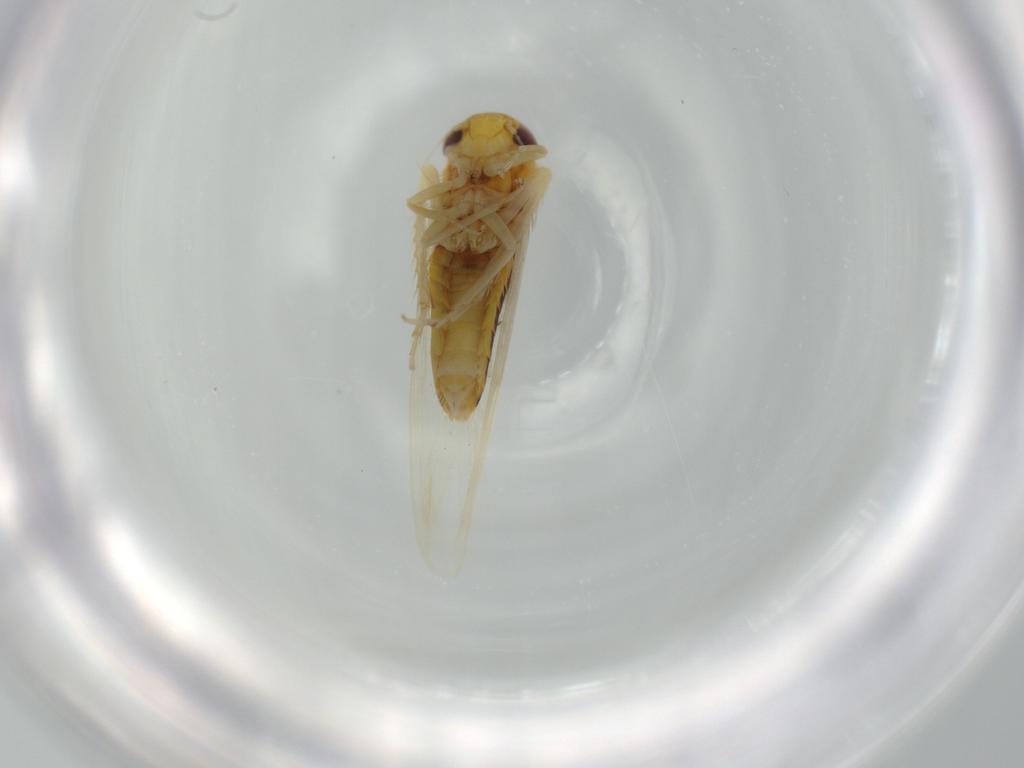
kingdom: Animalia
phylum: Arthropoda
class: Insecta
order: Hemiptera
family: Cicadellidae
